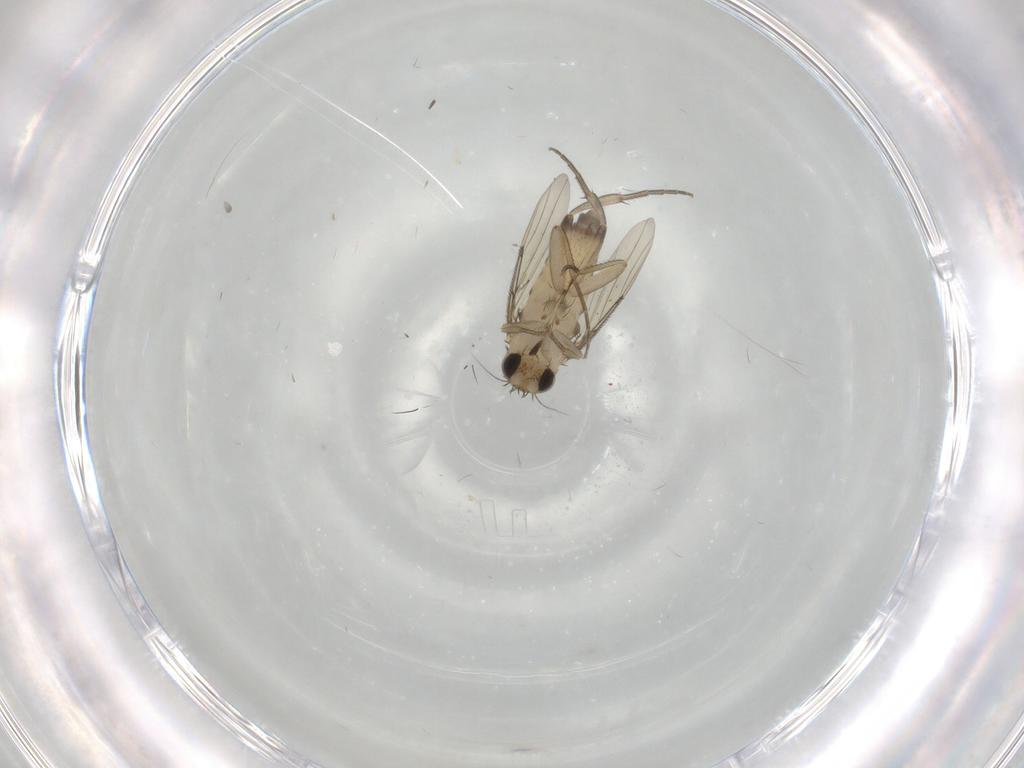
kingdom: Animalia
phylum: Arthropoda
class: Insecta
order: Diptera
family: Phoridae
